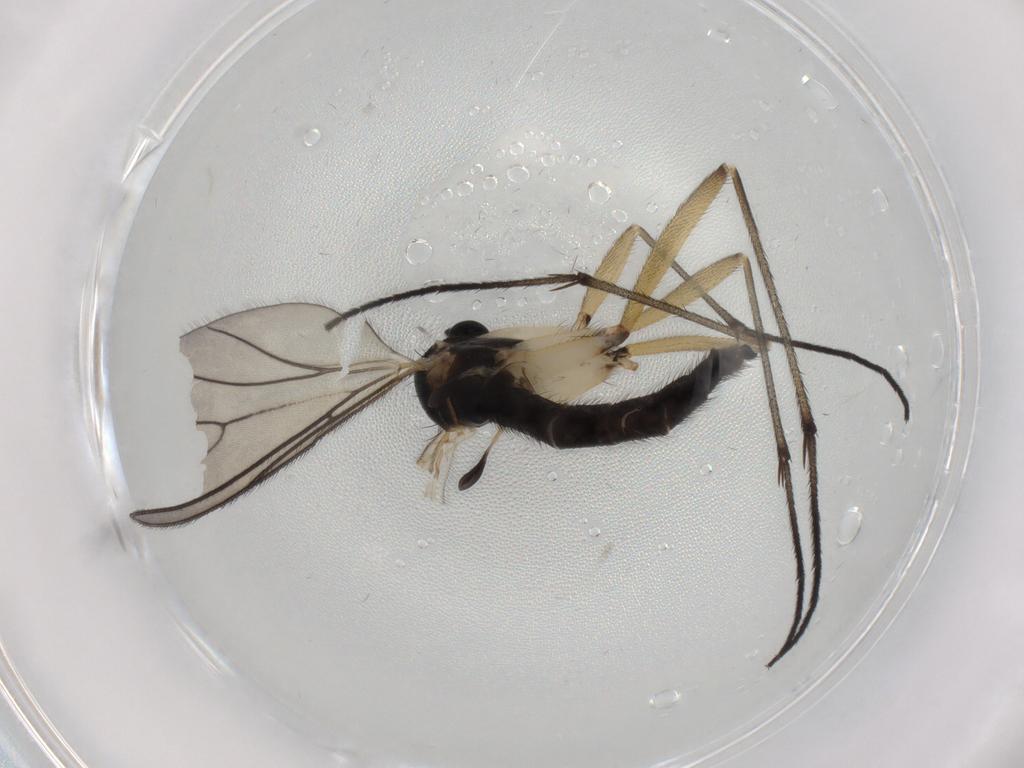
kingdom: Animalia
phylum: Arthropoda
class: Insecta
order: Diptera
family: Sciaridae
